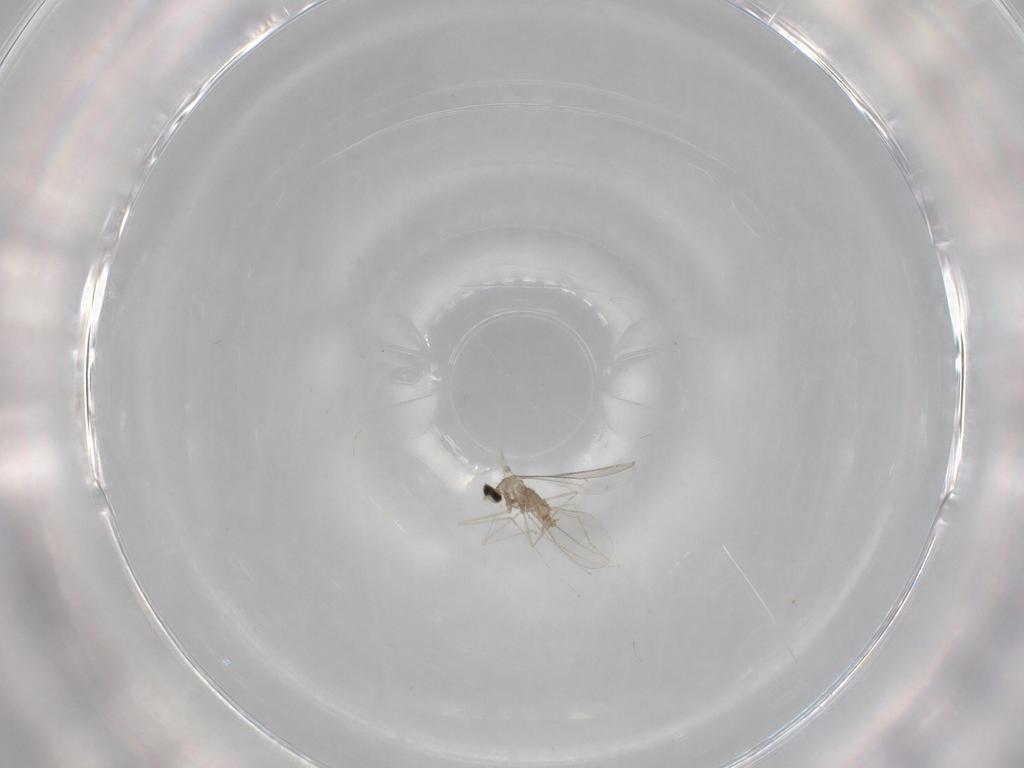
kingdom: Animalia
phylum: Arthropoda
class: Insecta
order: Diptera
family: Cecidomyiidae
